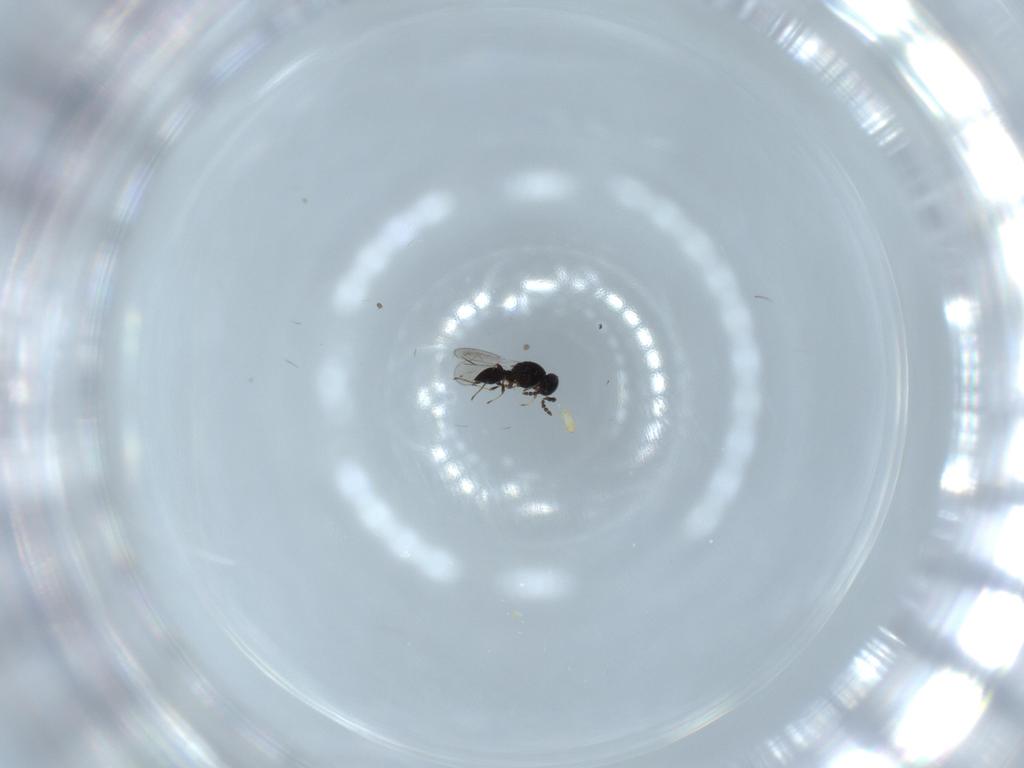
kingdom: Animalia
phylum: Arthropoda
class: Insecta
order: Hymenoptera
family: Platygastridae
